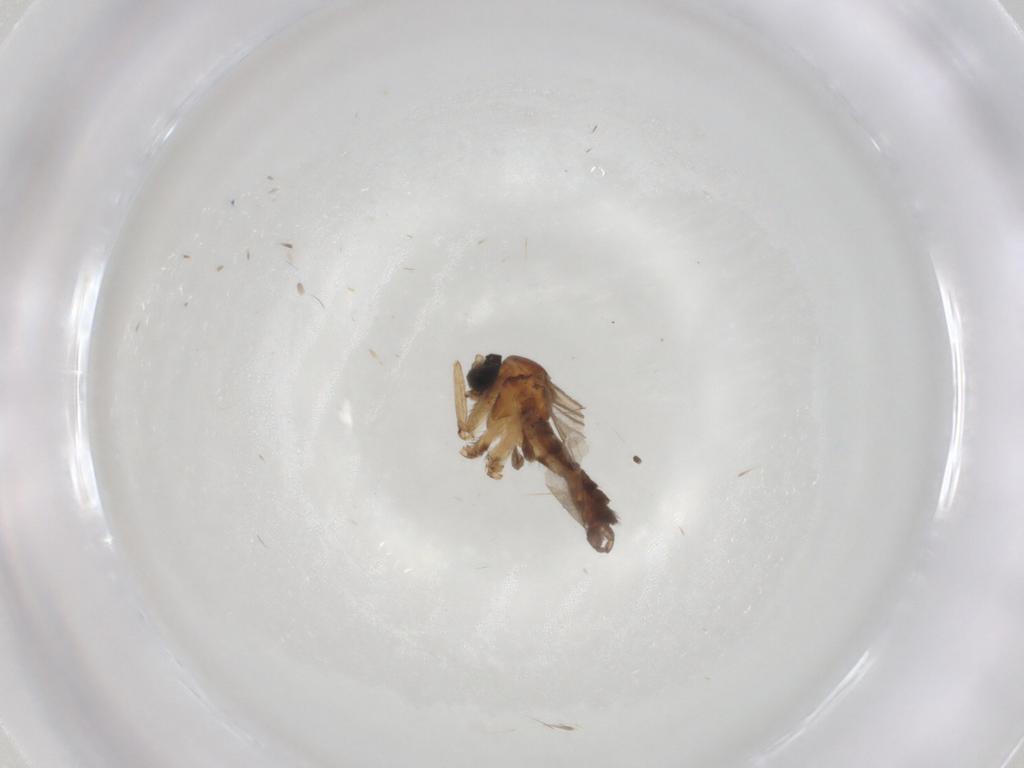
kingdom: Animalia
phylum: Arthropoda
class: Insecta
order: Diptera
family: Sciaridae
